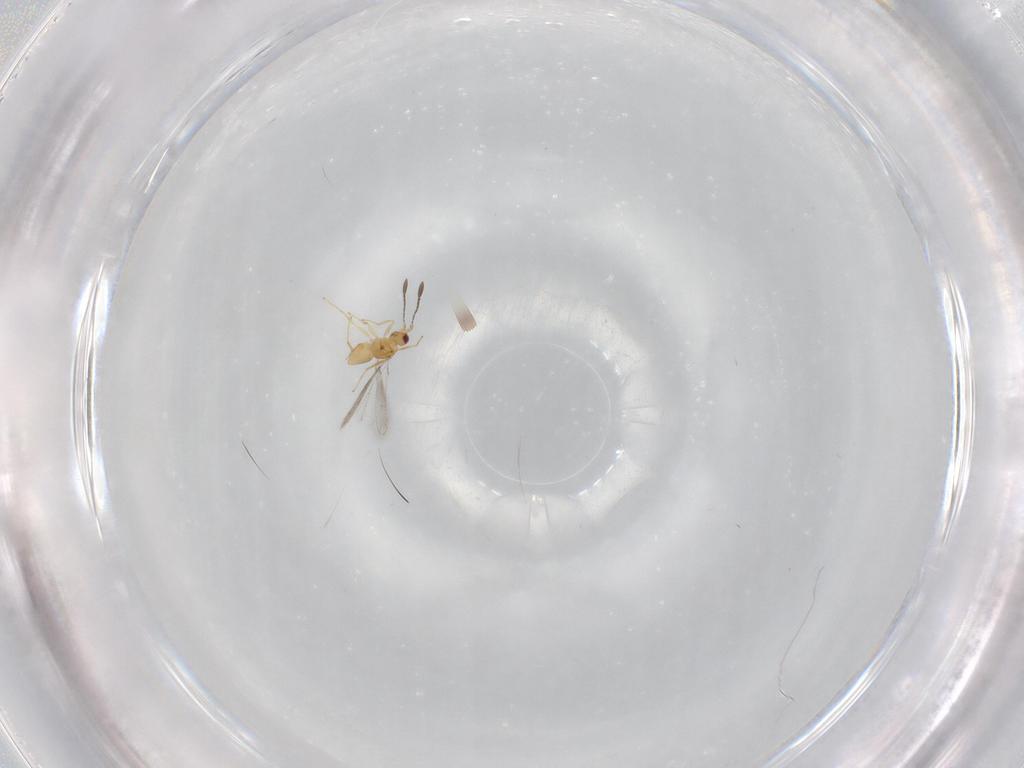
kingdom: Animalia
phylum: Arthropoda
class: Insecta
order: Hymenoptera
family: Mymaridae
